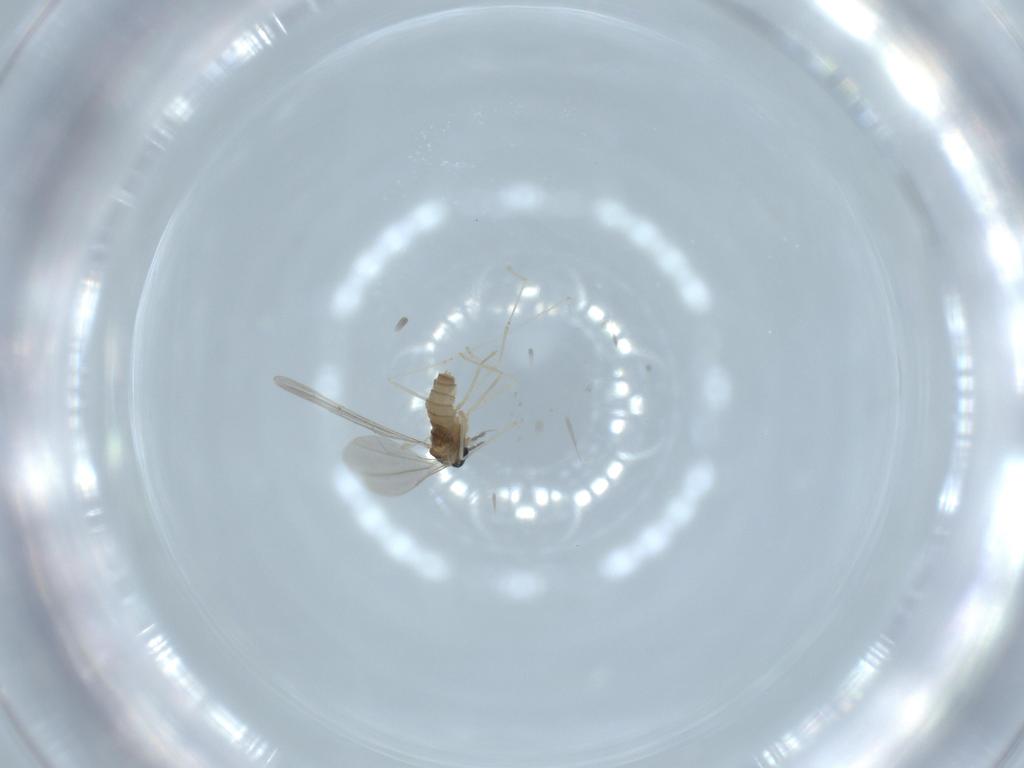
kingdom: Animalia
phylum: Arthropoda
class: Insecta
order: Diptera
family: Cecidomyiidae
